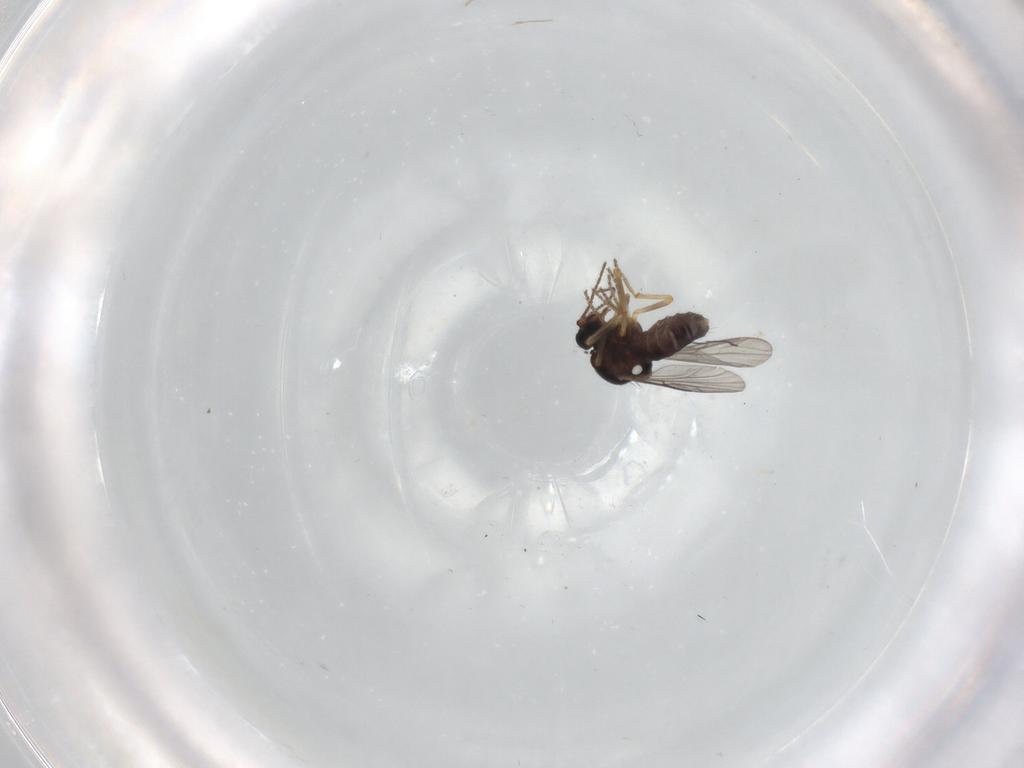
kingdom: Animalia
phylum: Arthropoda
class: Insecta
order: Diptera
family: Ceratopogonidae
